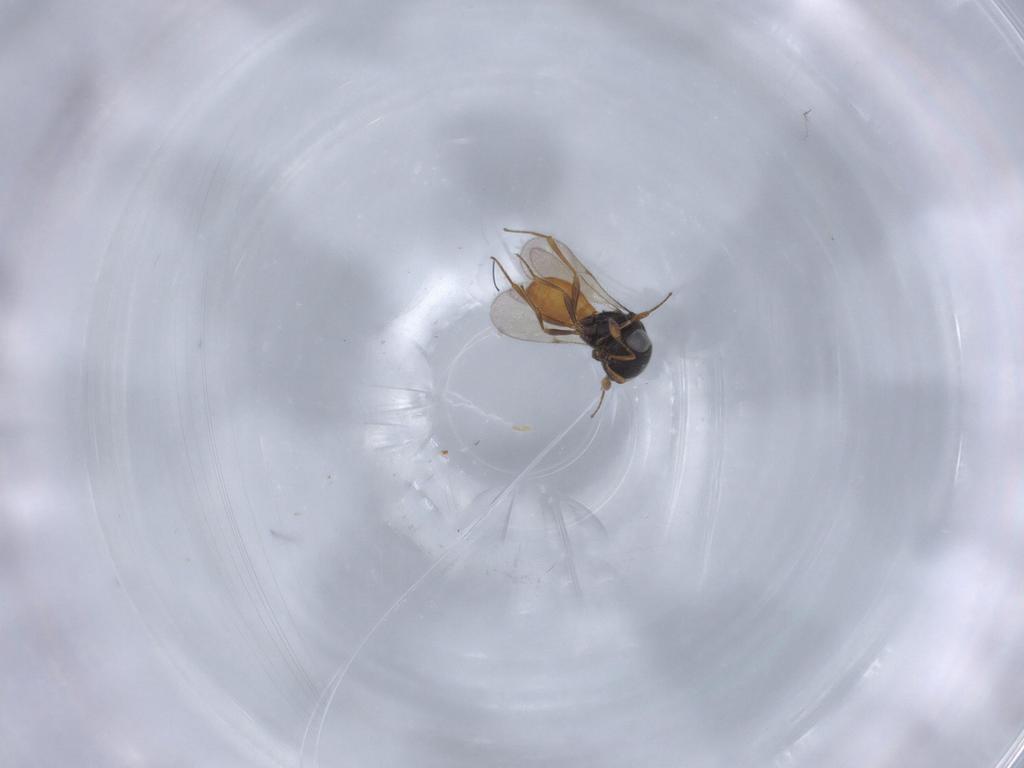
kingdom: Animalia
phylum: Arthropoda
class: Insecta
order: Hymenoptera
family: Scelionidae
